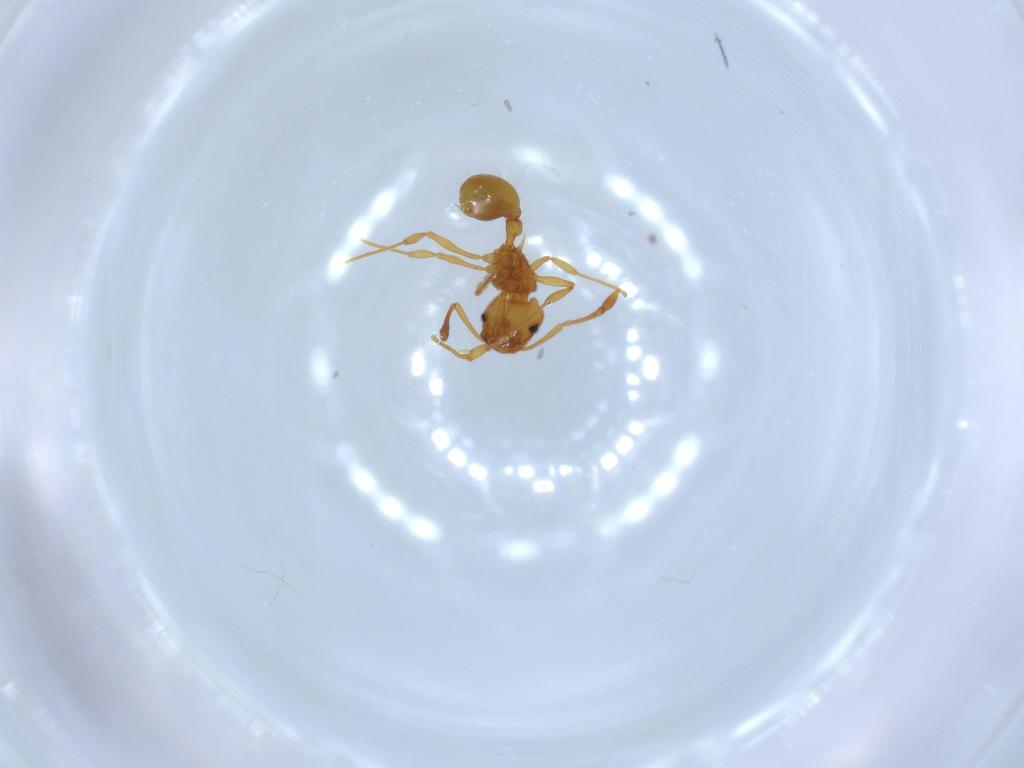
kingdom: Animalia
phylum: Arthropoda
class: Insecta
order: Hymenoptera
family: Formicidae
